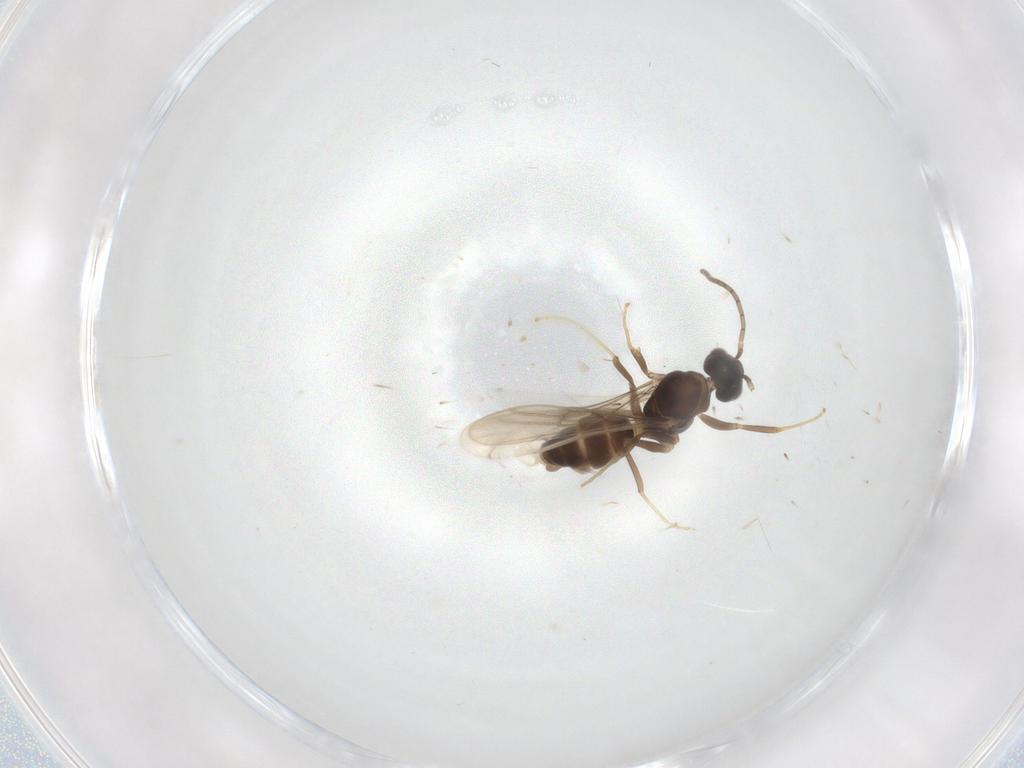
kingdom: Animalia
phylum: Arthropoda
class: Insecta
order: Hymenoptera
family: Formicidae
